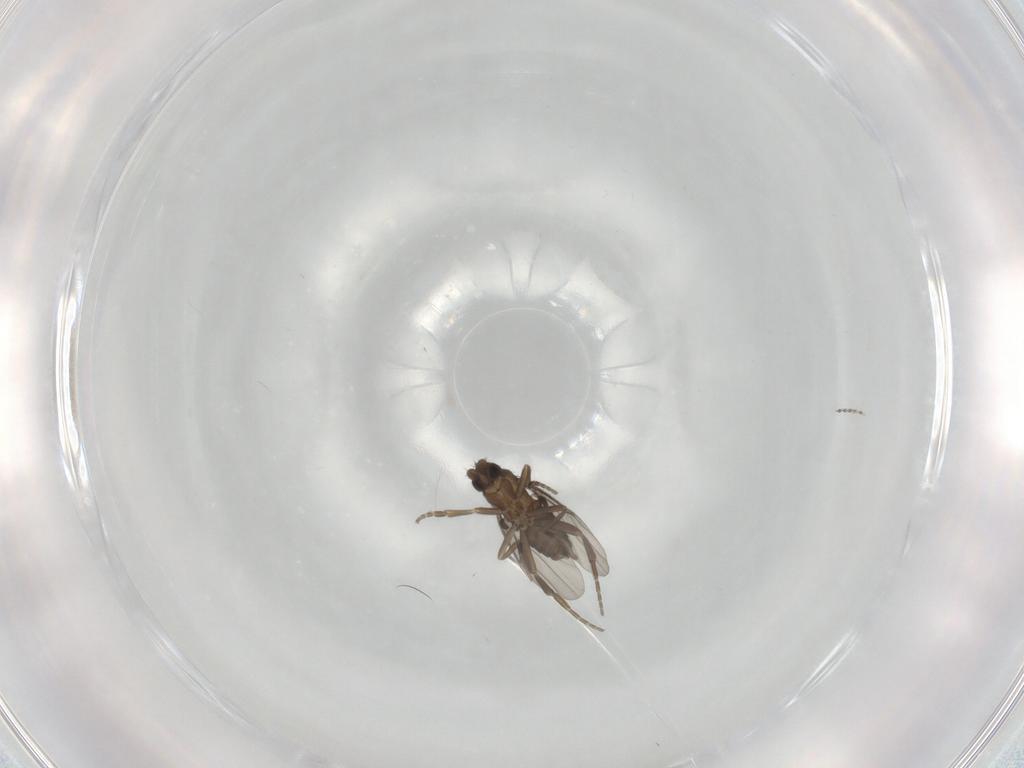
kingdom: Animalia
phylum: Arthropoda
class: Insecta
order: Diptera
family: Phoridae
